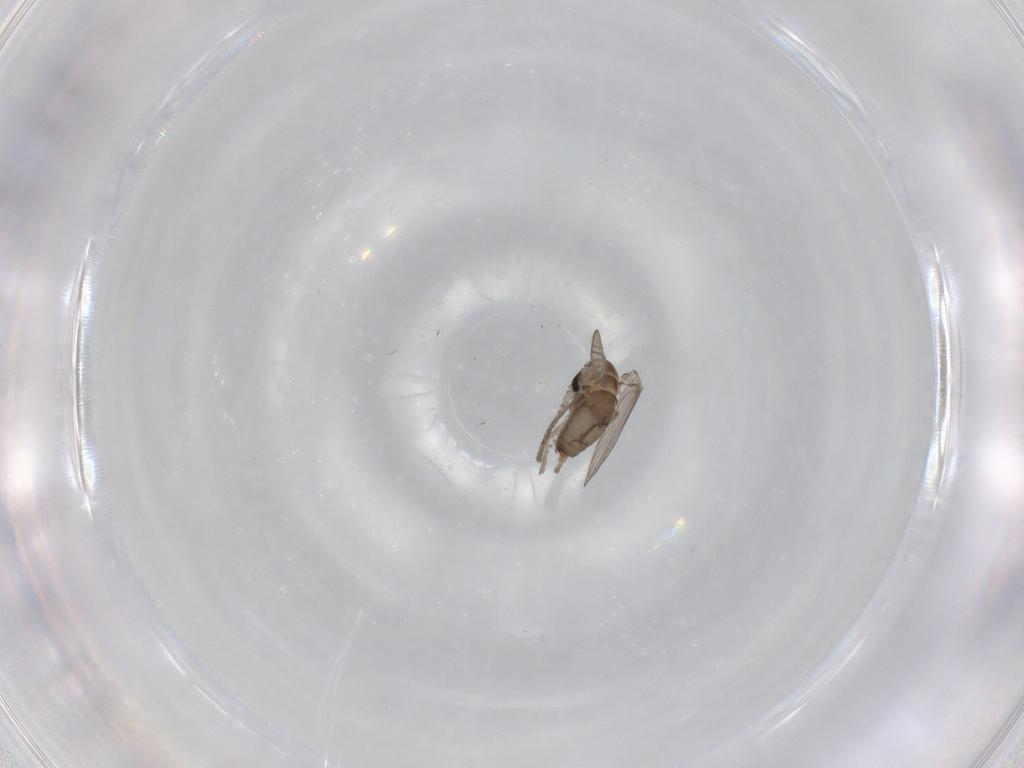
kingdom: Animalia
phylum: Arthropoda
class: Insecta
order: Diptera
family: Psychodidae
